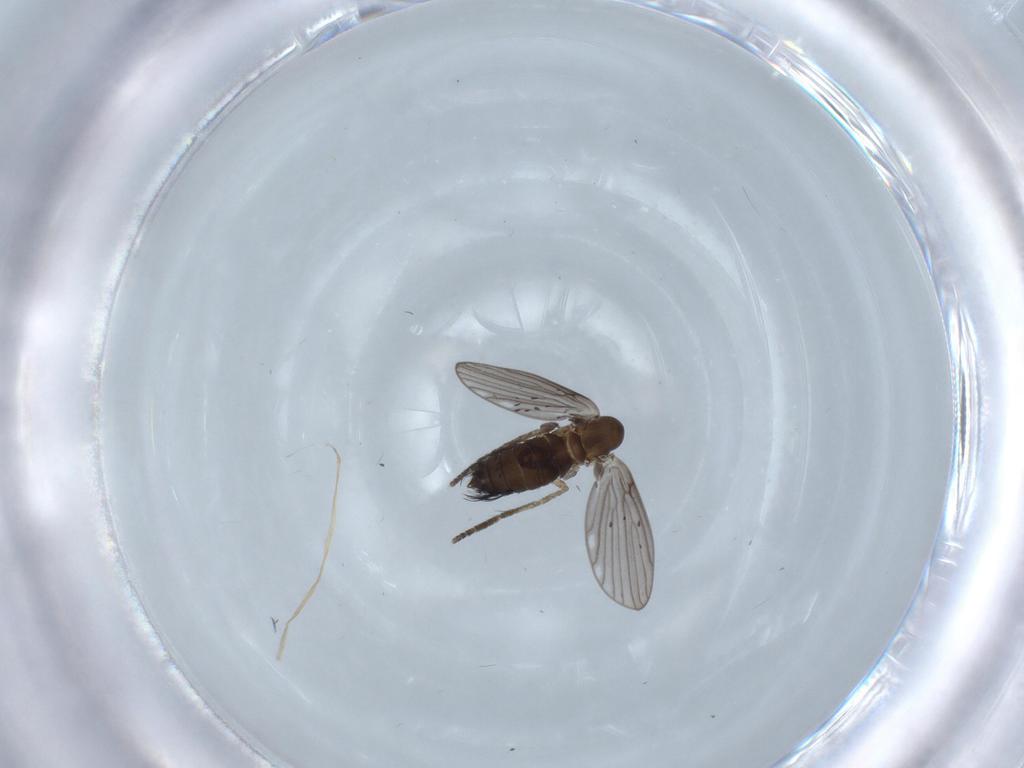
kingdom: Animalia
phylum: Arthropoda
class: Insecta
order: Diptera
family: Psychodidae
